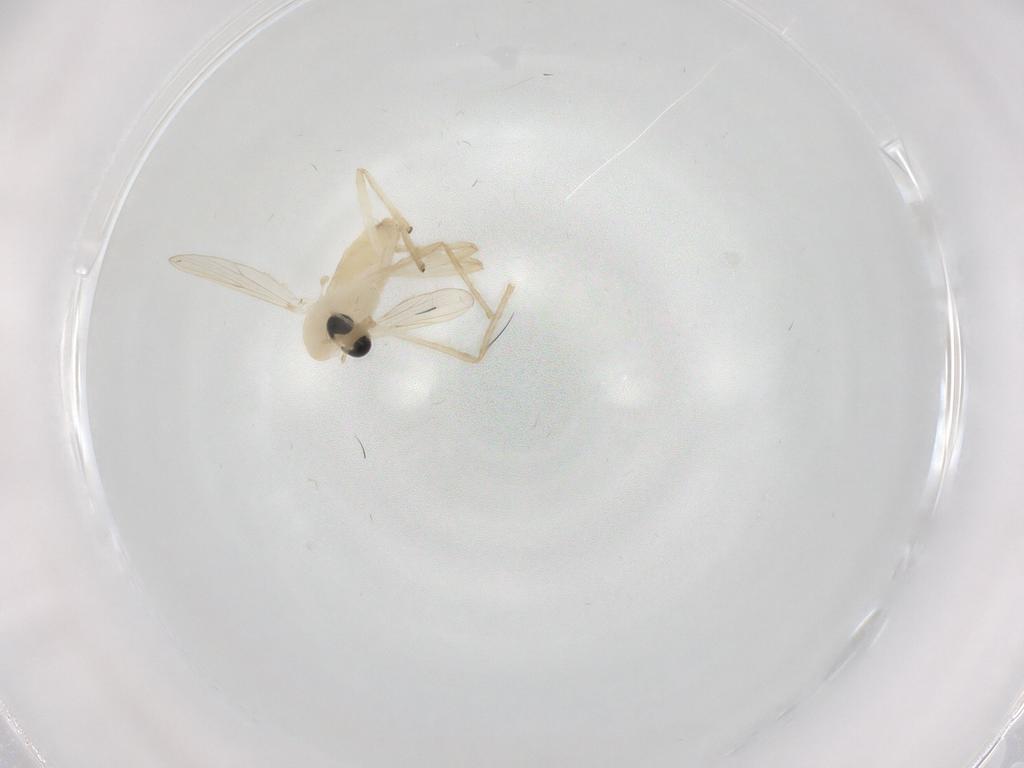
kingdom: Animalia
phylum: Arthropoda
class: Insecta
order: Diptera
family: Chironomidae
